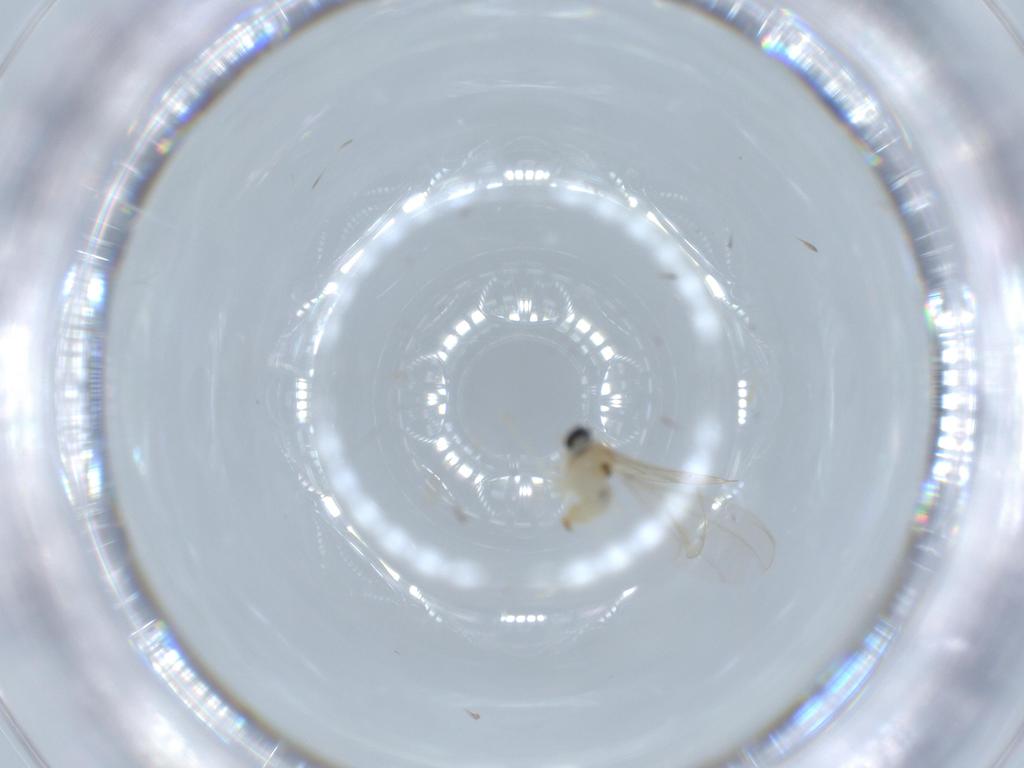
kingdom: Animalia
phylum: Arthropoda
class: Insecta
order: Diptera
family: Cecidomyiidae
